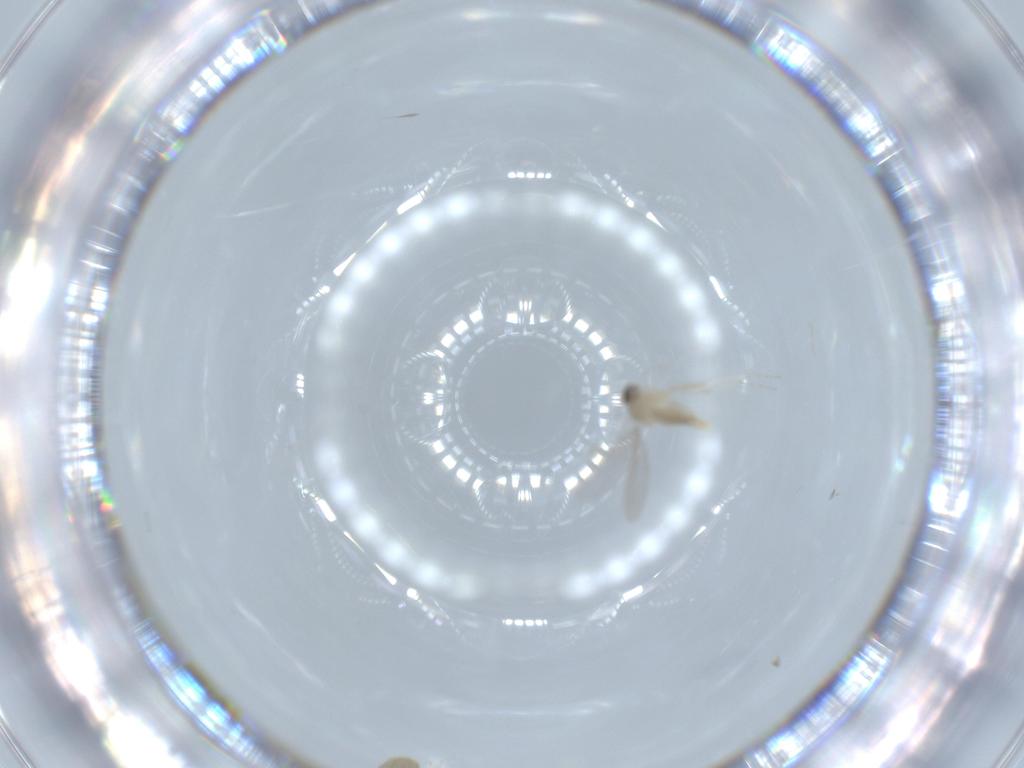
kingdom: Animalia
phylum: Arthropoda
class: Insecta
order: Diptera
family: Cecidomyiidae
